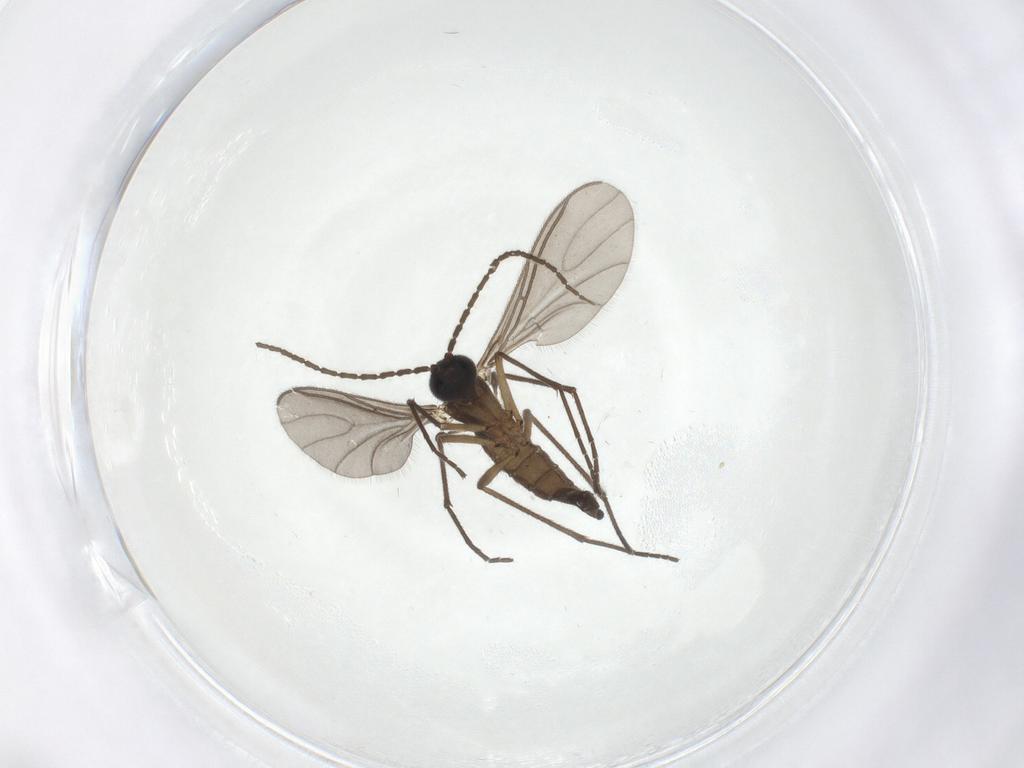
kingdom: Animalia
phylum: Arthropoda
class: Insecta
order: Diptera
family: Sciaridae
